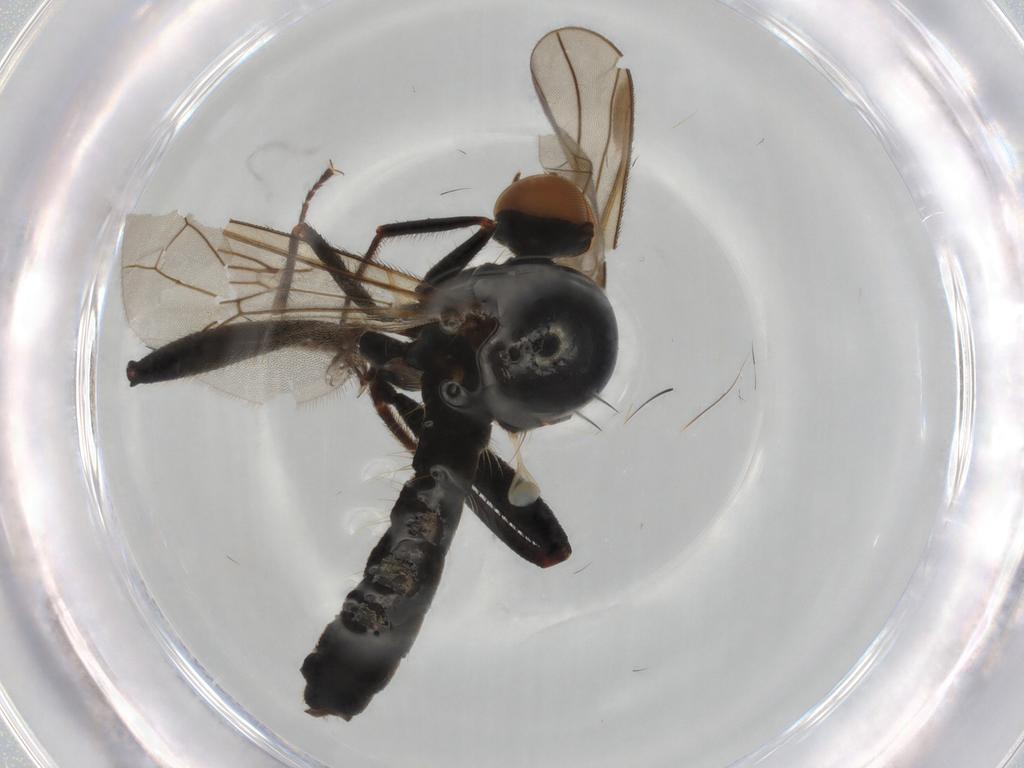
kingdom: Animalia
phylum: Arthropoda
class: Insecta
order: Diptera
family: Hybotidae
